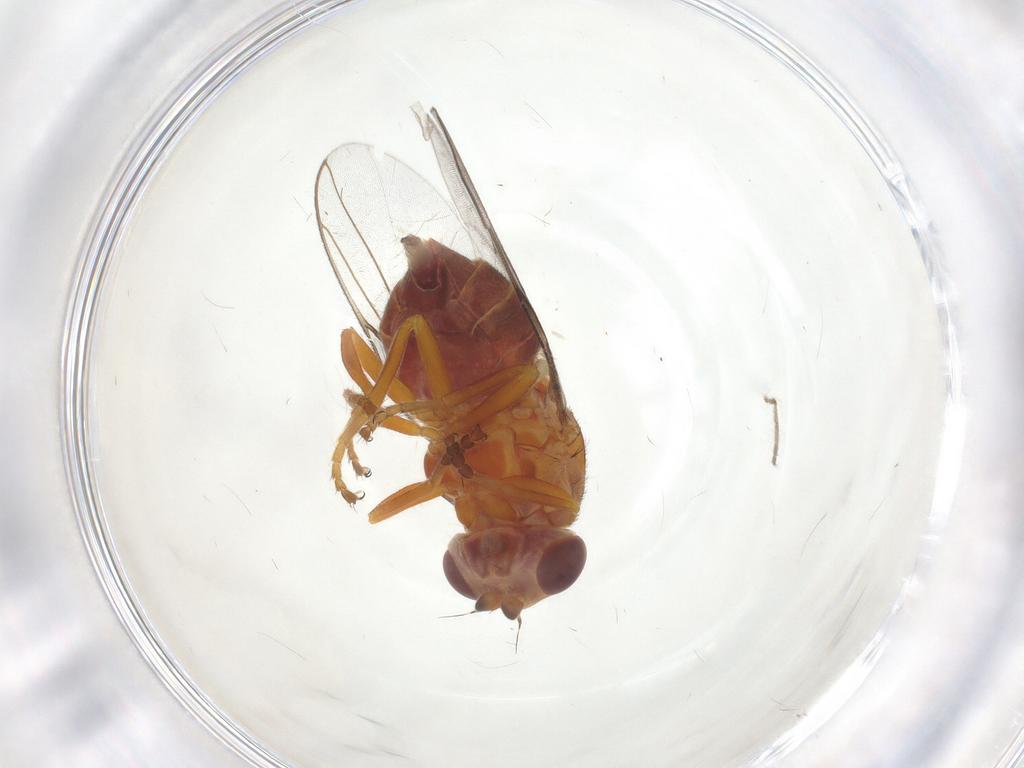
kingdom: Animalia
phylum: Arthropoda
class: Insecta
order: Diptera
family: Chloropidae
